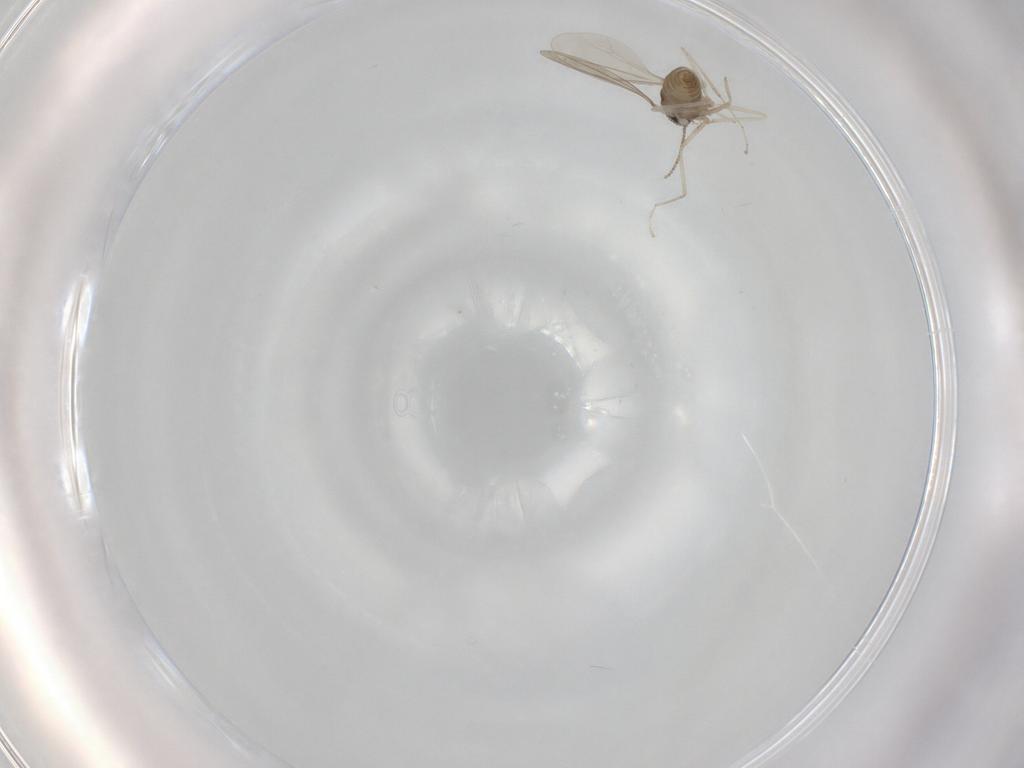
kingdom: Animalia
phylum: Arthropoda
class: Insecta
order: Diptera
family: Cecidomyiidae
